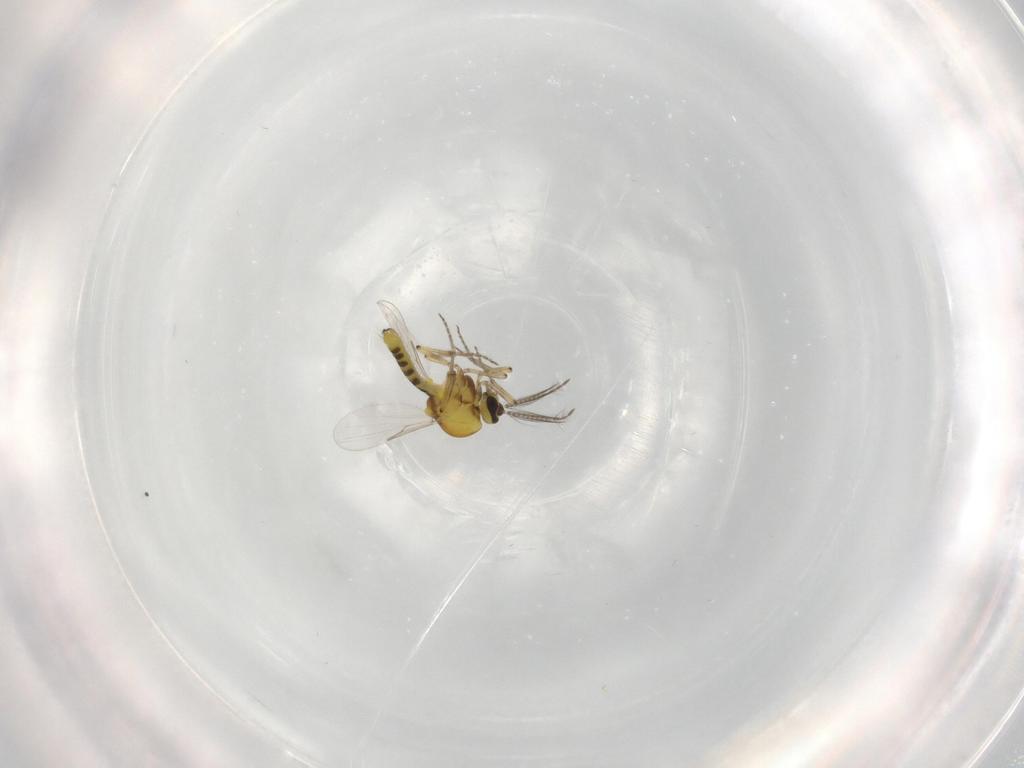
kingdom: Animalia
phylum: Arthropoda
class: Insecta
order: Diptera
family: Ceratopogonidae
